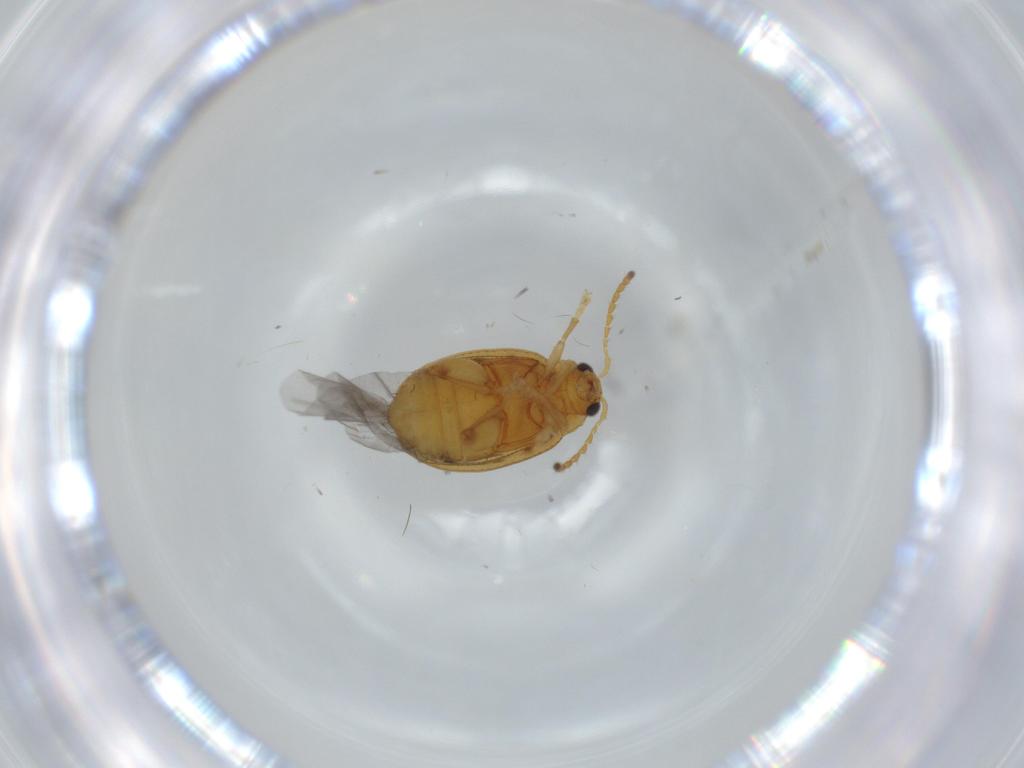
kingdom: Animalia
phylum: Arthropoda
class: Insecta
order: Coleoptera
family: Chrysomelidae
